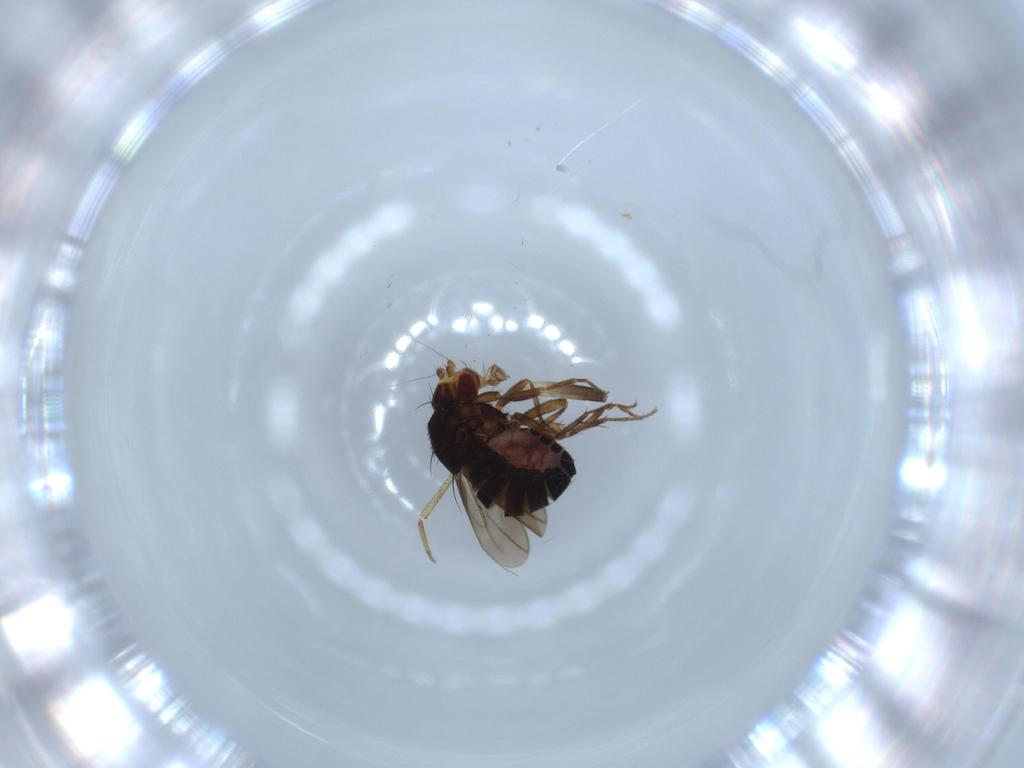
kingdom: Animalia
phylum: Arthropoda
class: Insecta
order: Diptera
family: Sphaeroceridae
